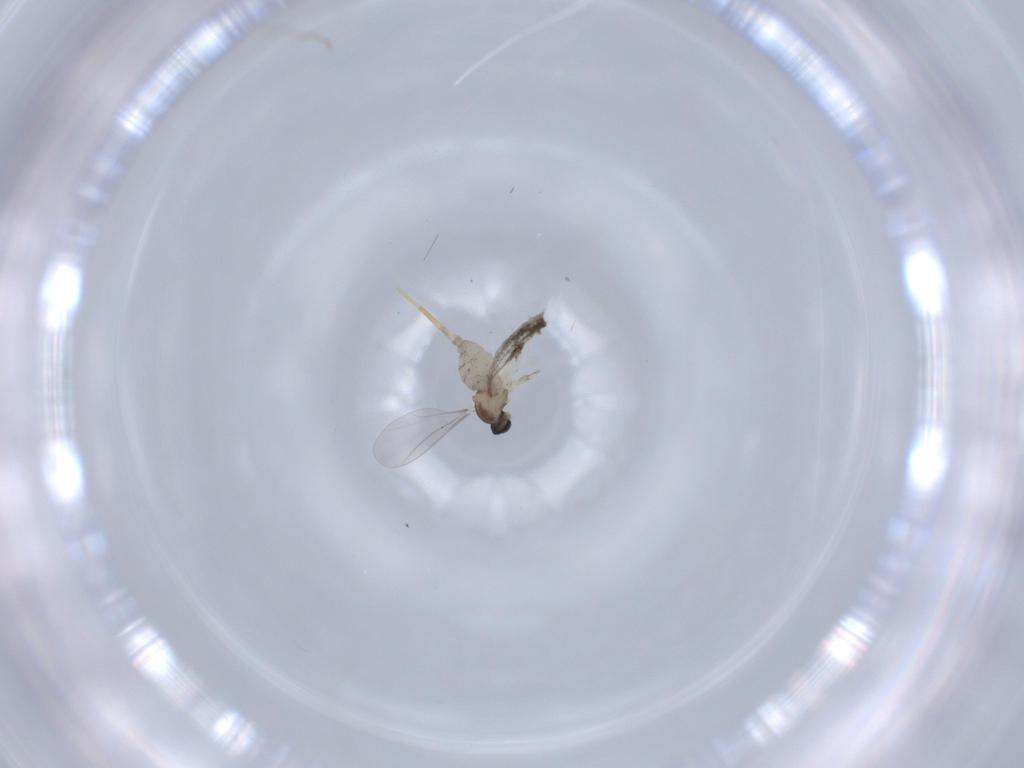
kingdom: Animalia
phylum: Arthropoda
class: Insecta
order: Diptera
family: Cecidomyiidae
